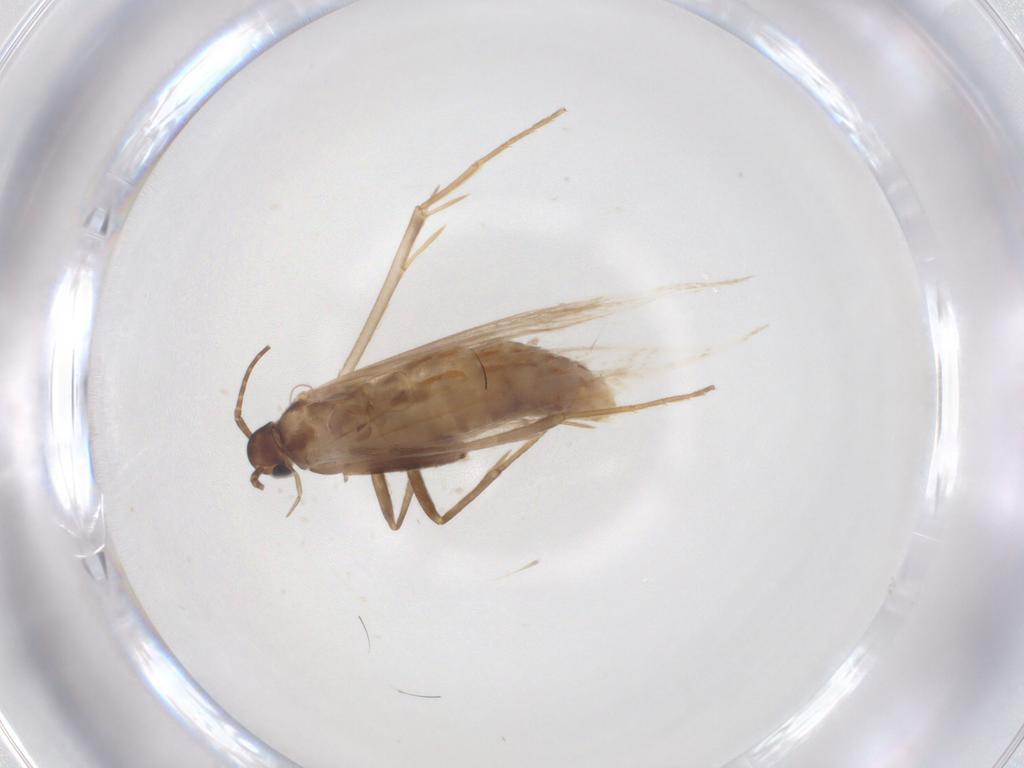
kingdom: Animalia
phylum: Arthropoda
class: Insecta
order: Lepidoptera
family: Coleophoridae
